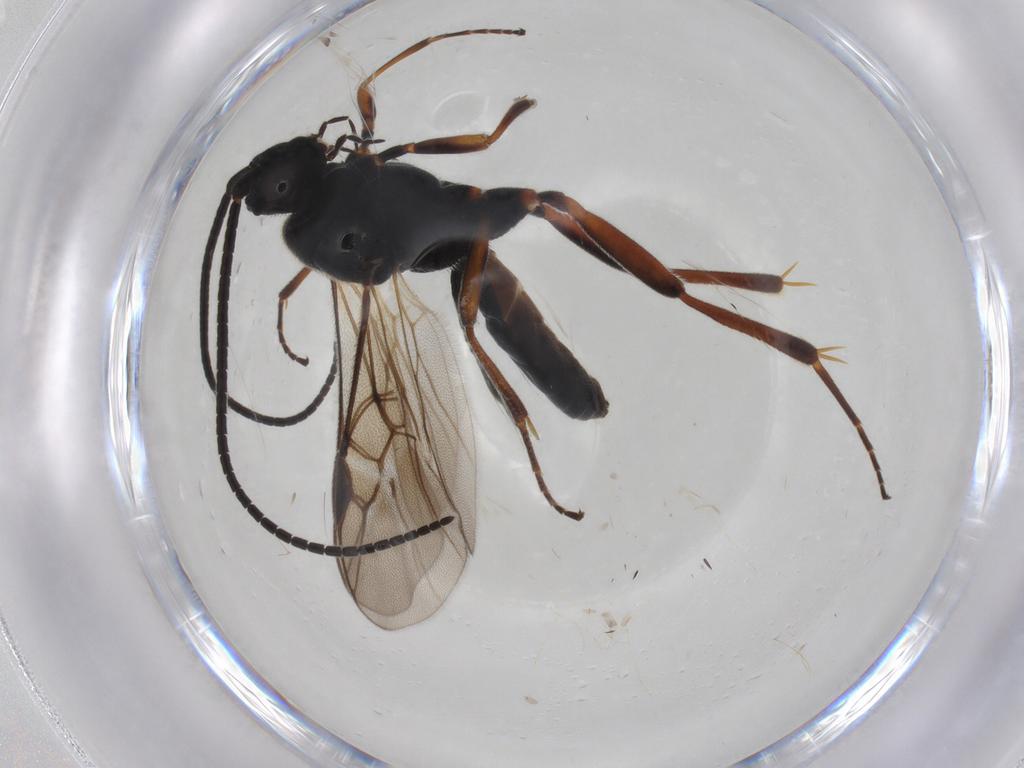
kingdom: Animalia
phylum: Arthropoda
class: Insecta
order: Hymenoptera
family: Braconidae
